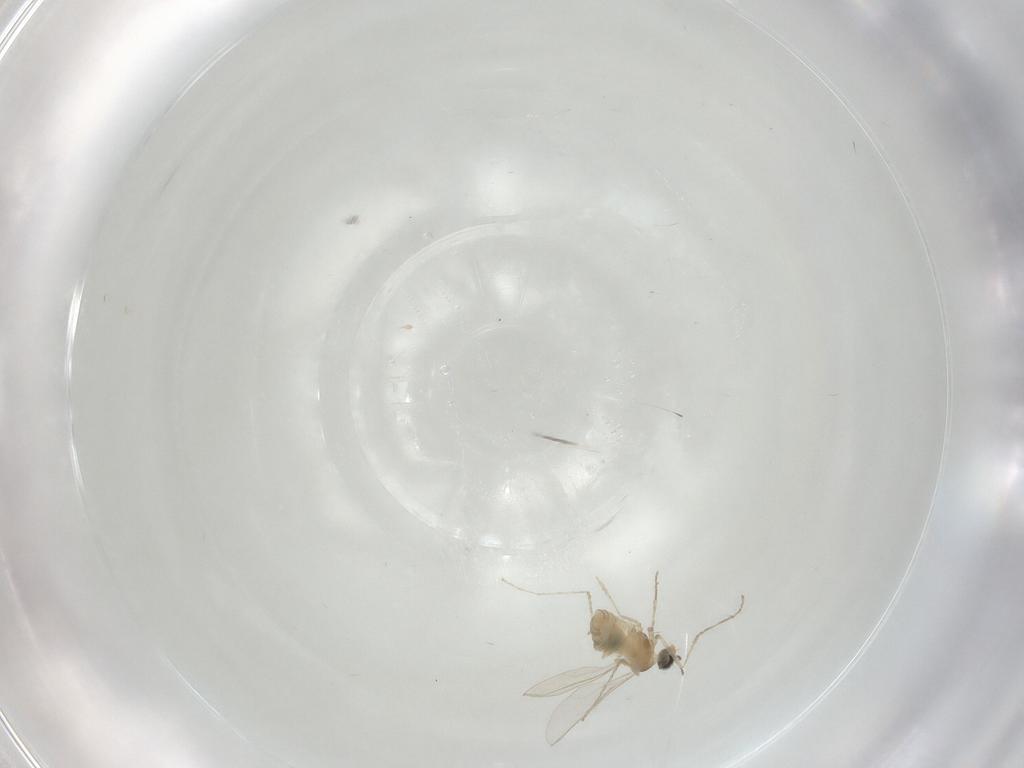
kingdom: Animalia
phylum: Arthropoda
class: Insecta
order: Diptera
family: Cecidomyiidae
